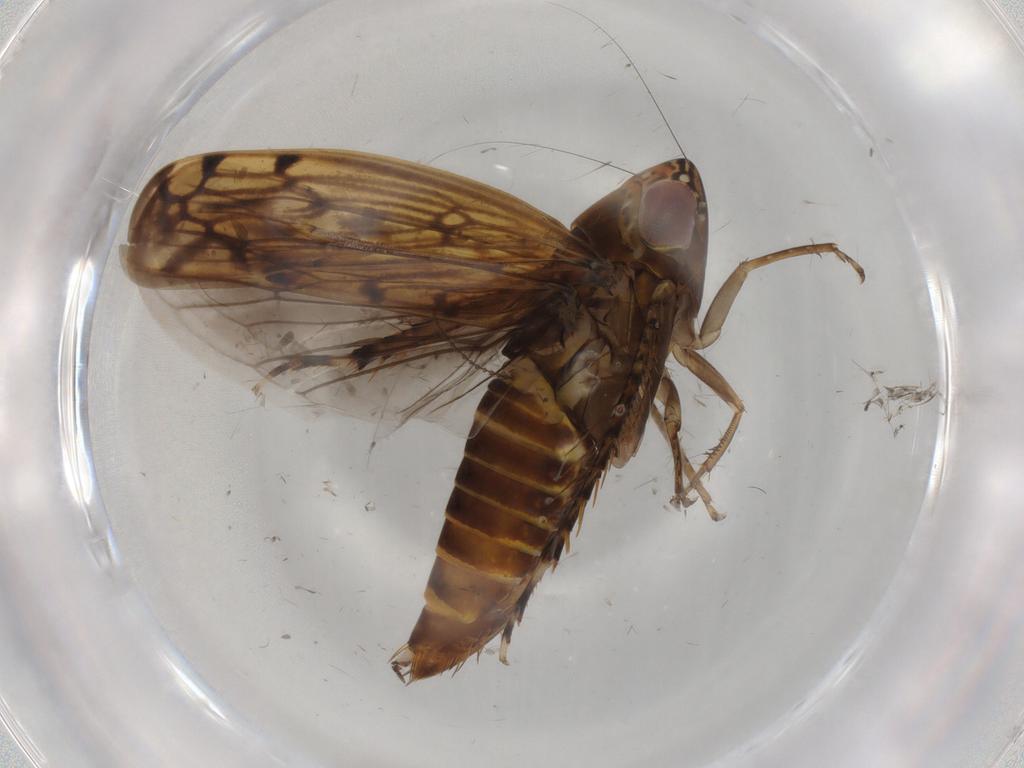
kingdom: Animalia
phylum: Arthropoda
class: Insecta
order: Hemiptera
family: Cicadellidae
